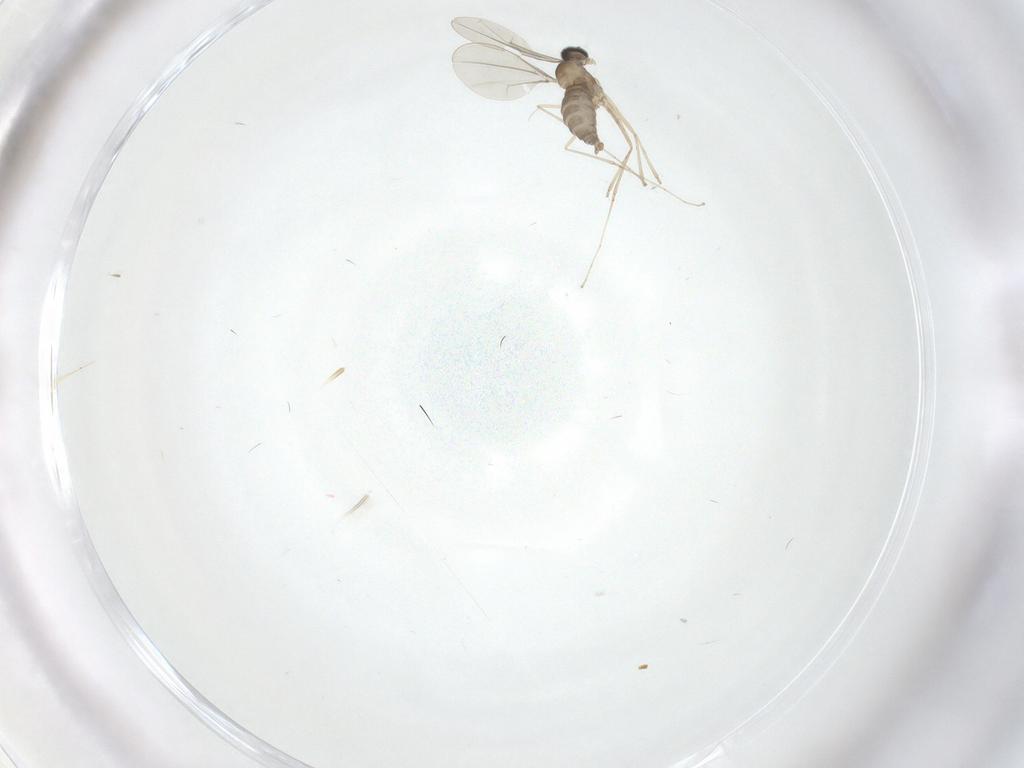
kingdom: Animalia
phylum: Arthropoda
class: Insecta
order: Diptera
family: Cecidomyiidae
